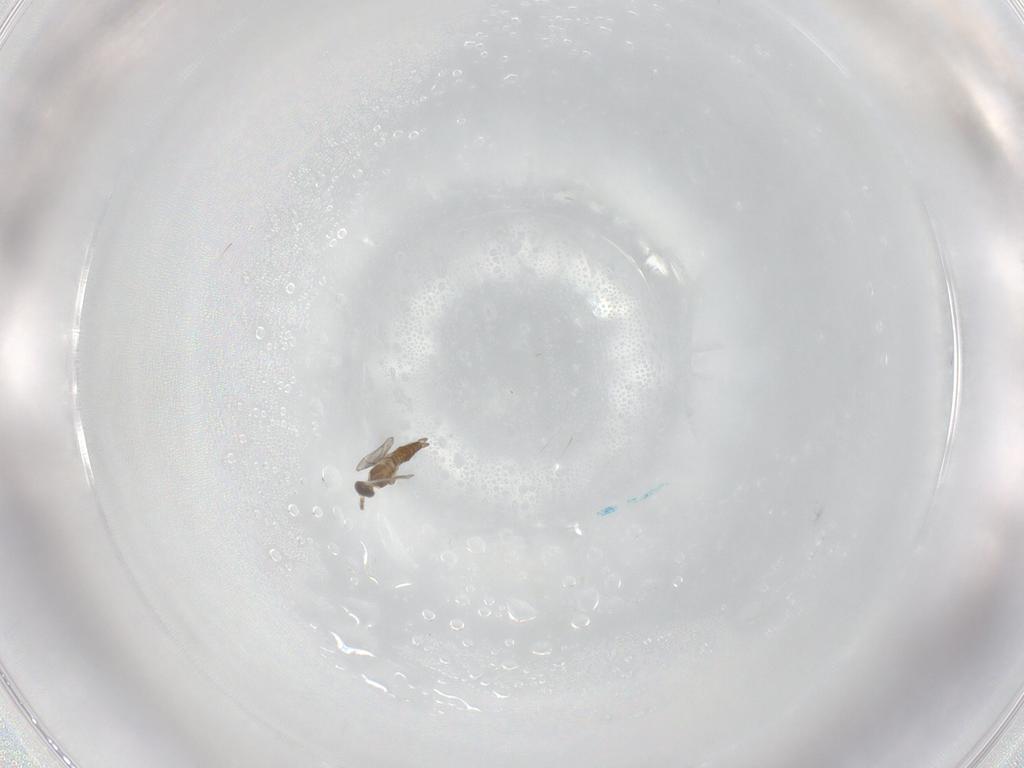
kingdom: Animalia
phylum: Arthropoda
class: Insecta
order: Diptera
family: Cecidomyiidae
